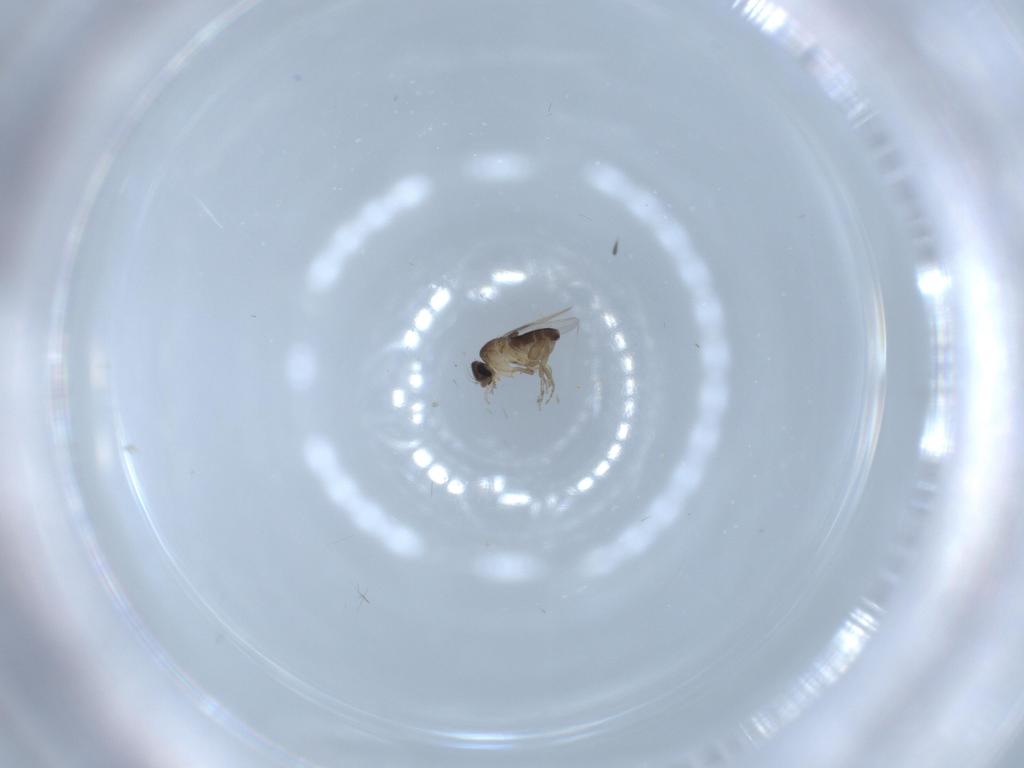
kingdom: Animalia
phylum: Arthropoda
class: Insecta
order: Diptera
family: Phoridae
